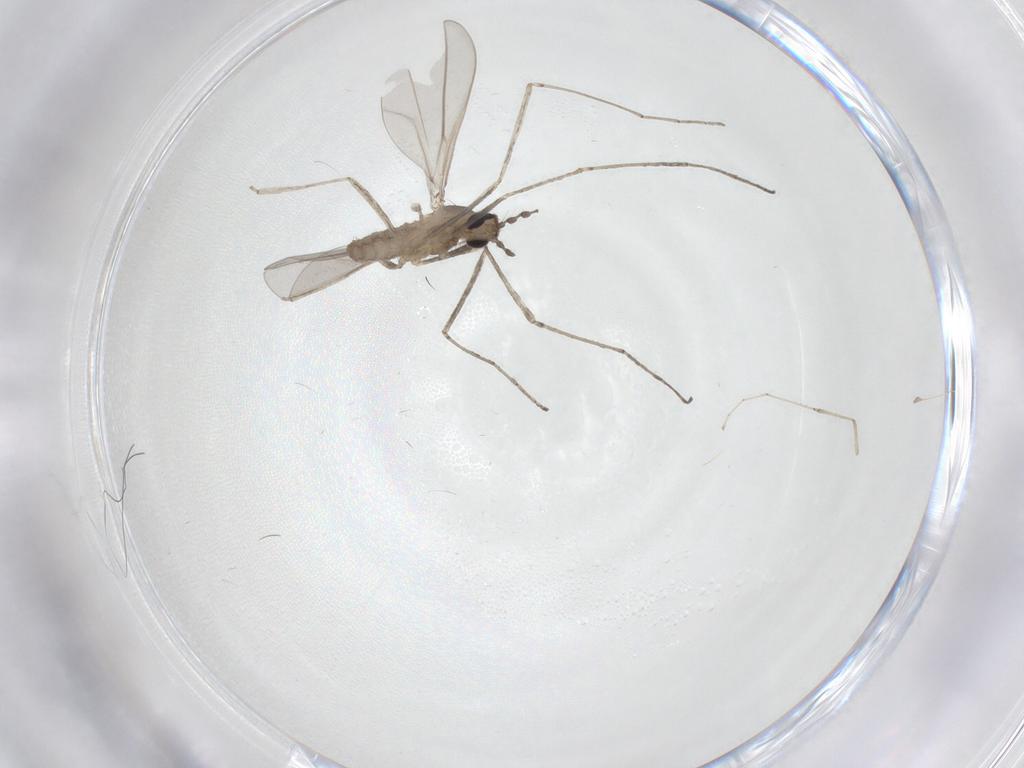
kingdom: Animalia
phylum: Arthropoda
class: Insecta
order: Diptera
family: Cecidomyiidae
